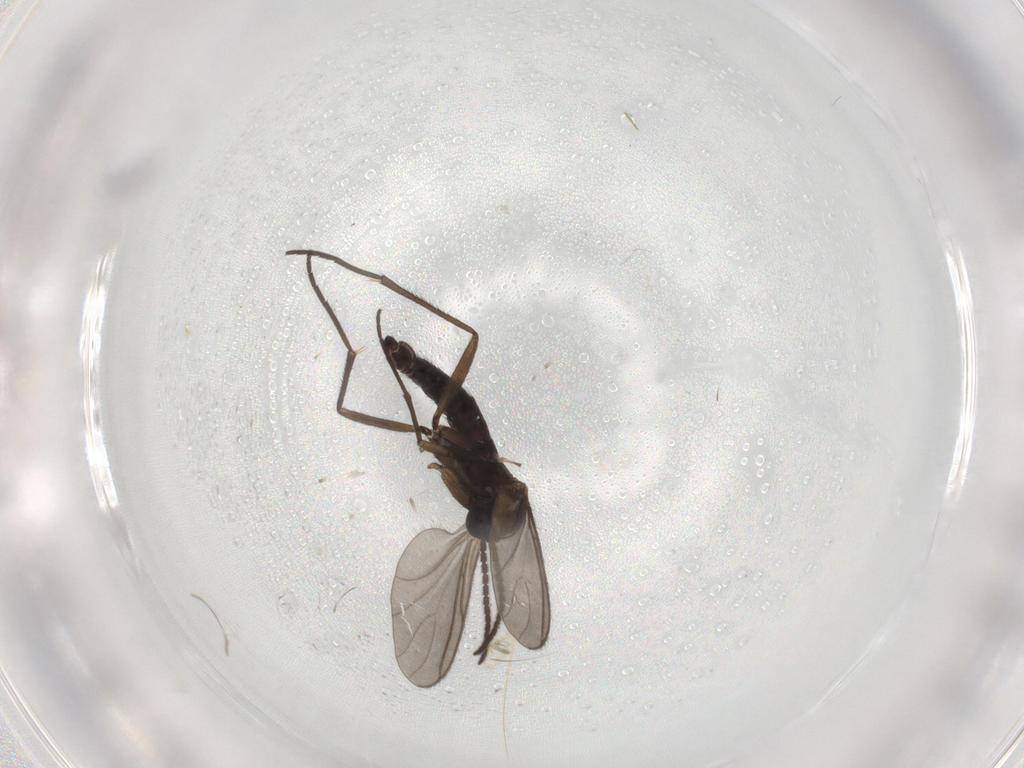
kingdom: Animalia
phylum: Arthropoda
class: Insecta
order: Diptera
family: Sciaridae
